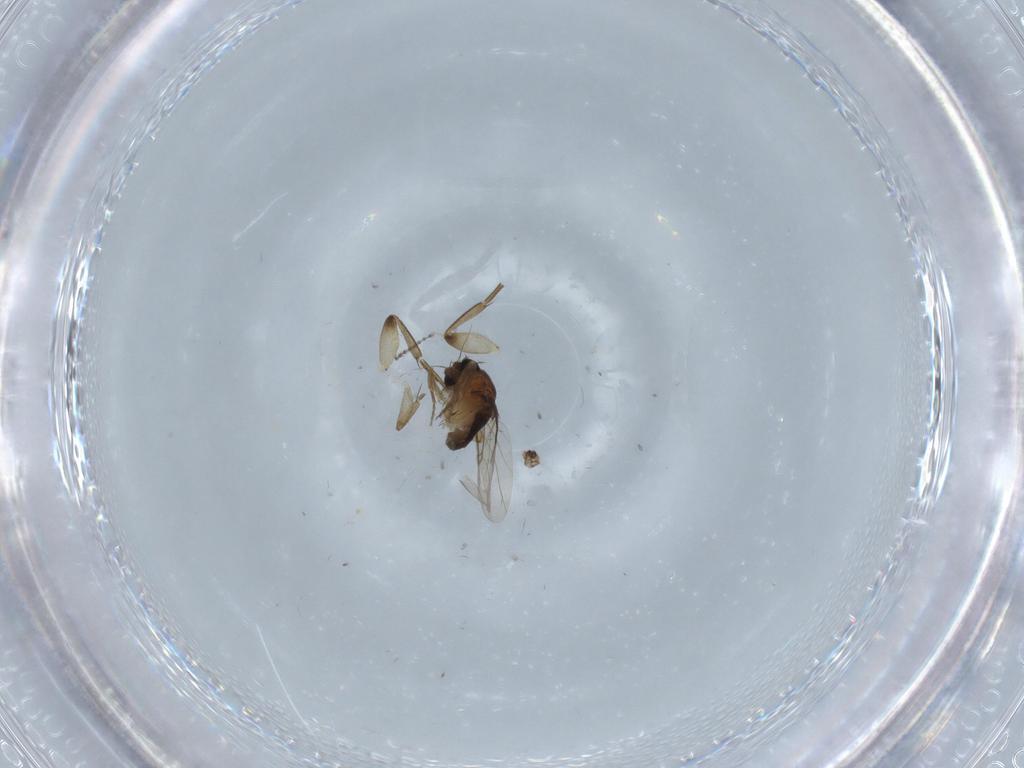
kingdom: Animalia
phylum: Arthropoda
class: Insecta
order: Diptera
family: Phoridae
